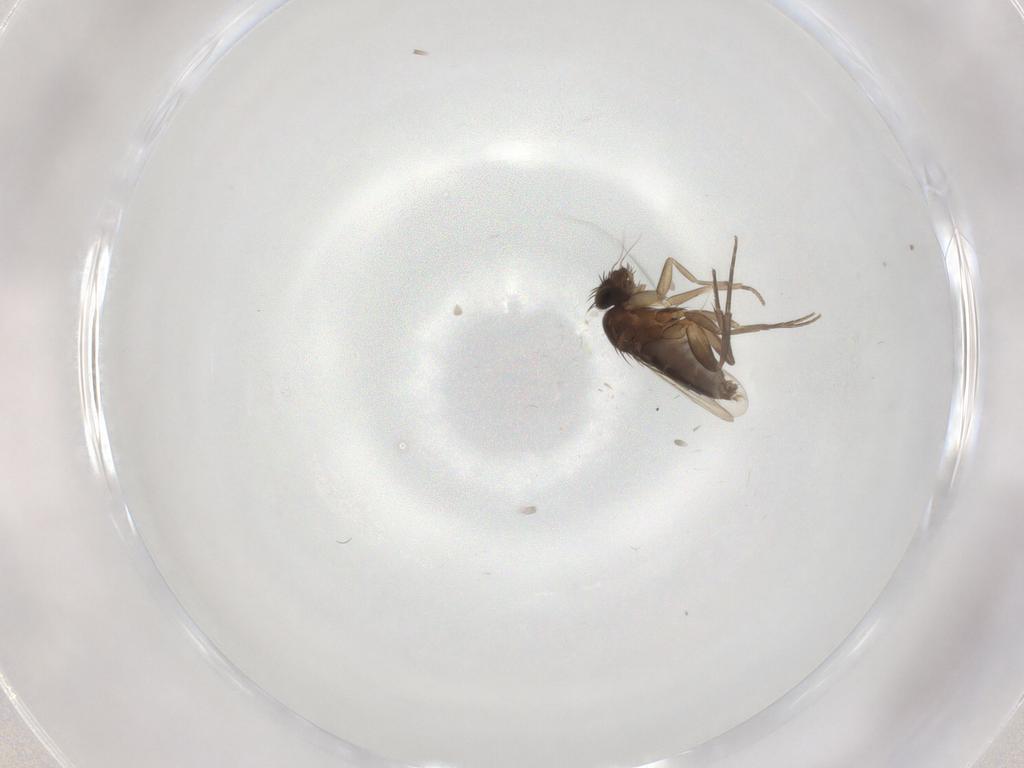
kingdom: Animalia
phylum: Arthropoda
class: Insecta
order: Diptera
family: Phoridae
